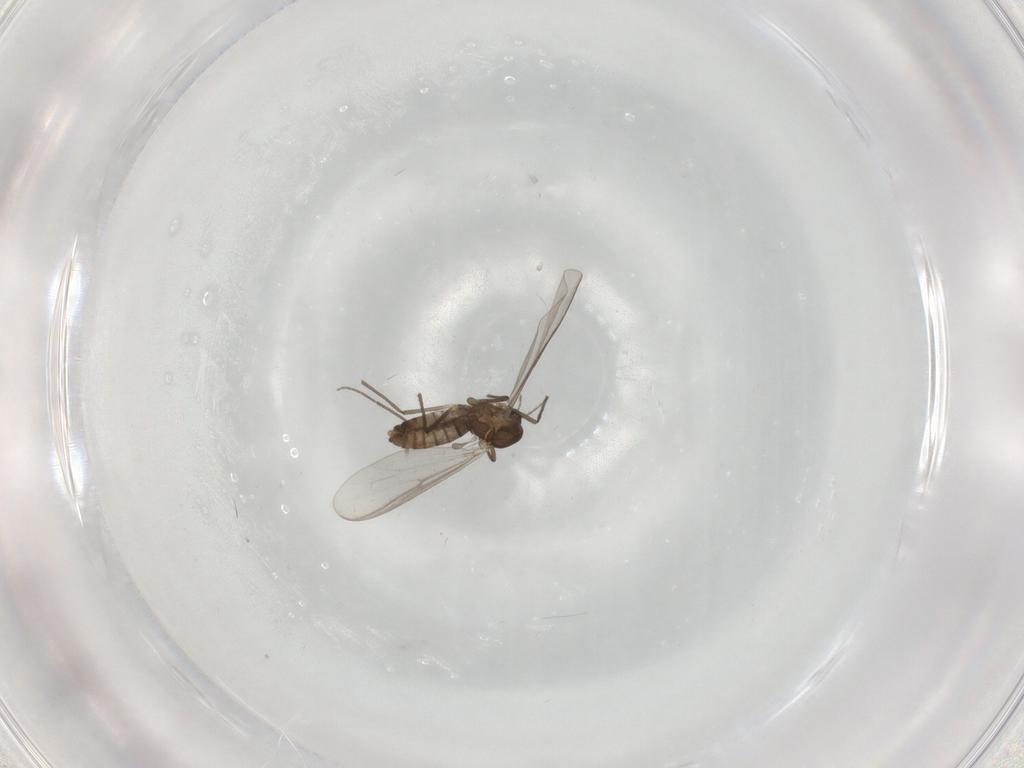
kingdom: Animalia
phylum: Arthropoda
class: Insecta
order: Diptera
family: Chironomidae
